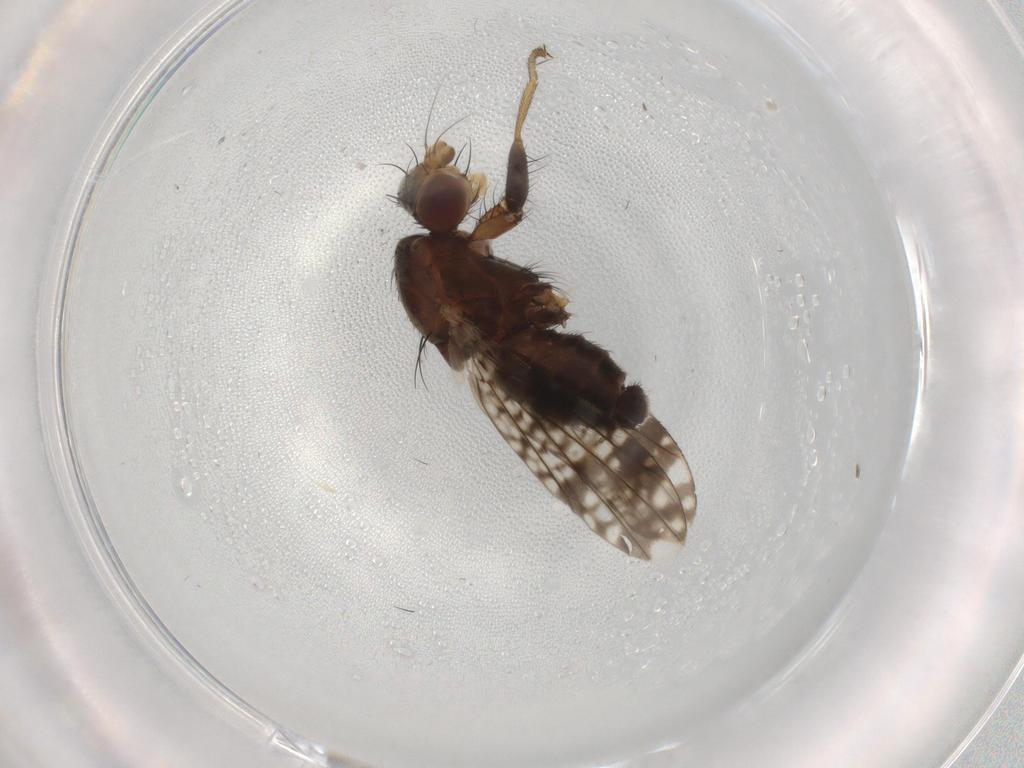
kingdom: Animalia
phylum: Arthropoda
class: Insecta
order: Diptera
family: Tephritidae
